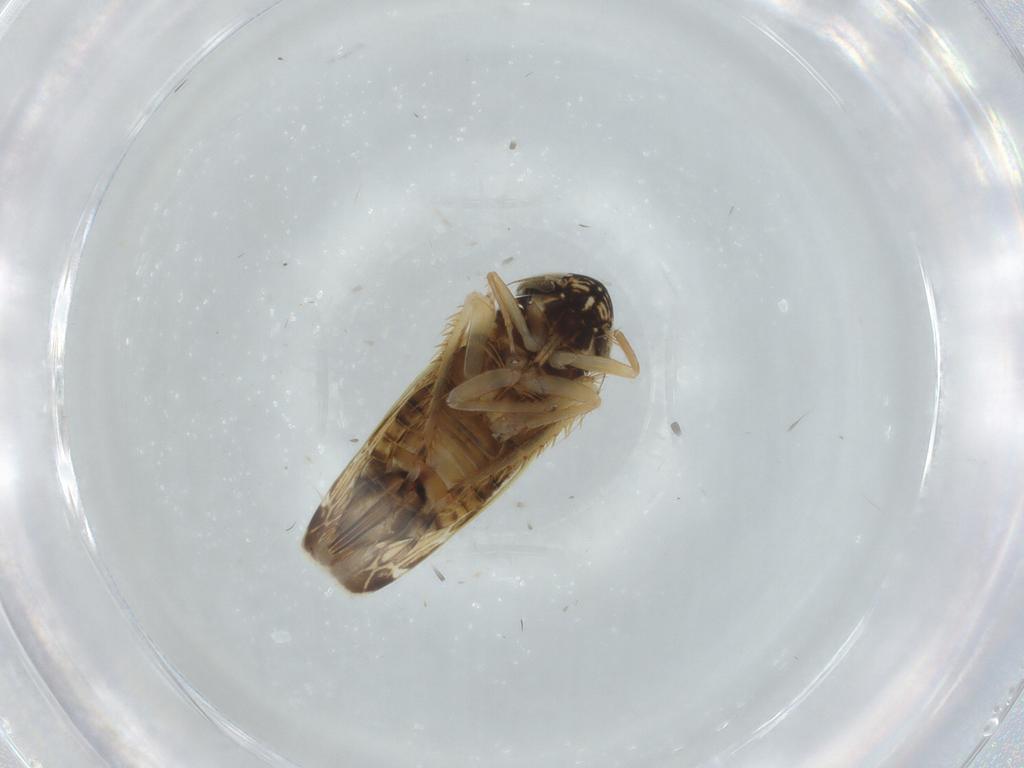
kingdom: Animalia
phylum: Arthropoda
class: Insecta
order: Hemiptera
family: Cicadellidae
